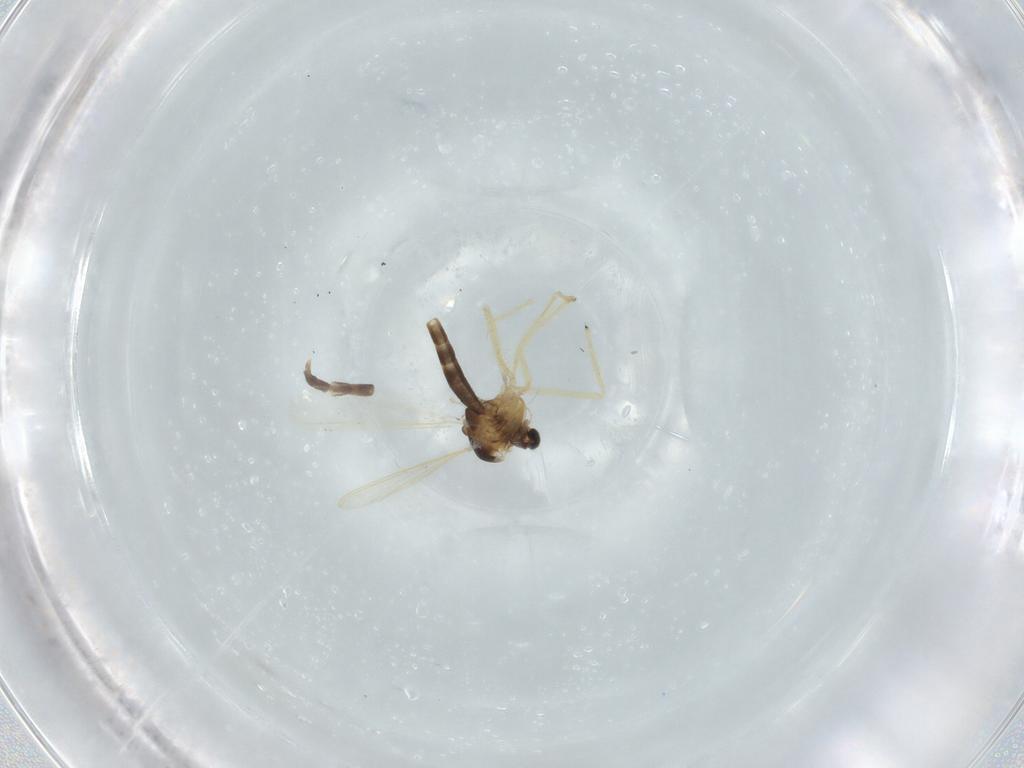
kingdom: Animalia
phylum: Arthropoda
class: Insecta
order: Diptera
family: Chironomidae
